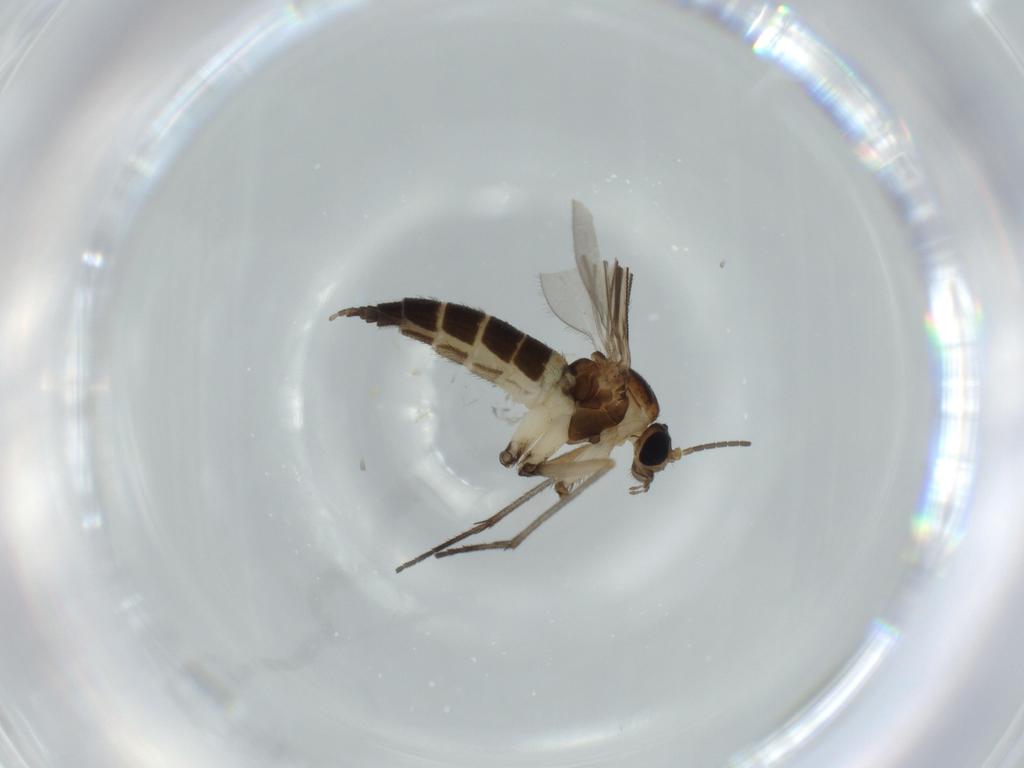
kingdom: Animalia
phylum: Arthropoda
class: Insecta
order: Diptera
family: Sciaridae
